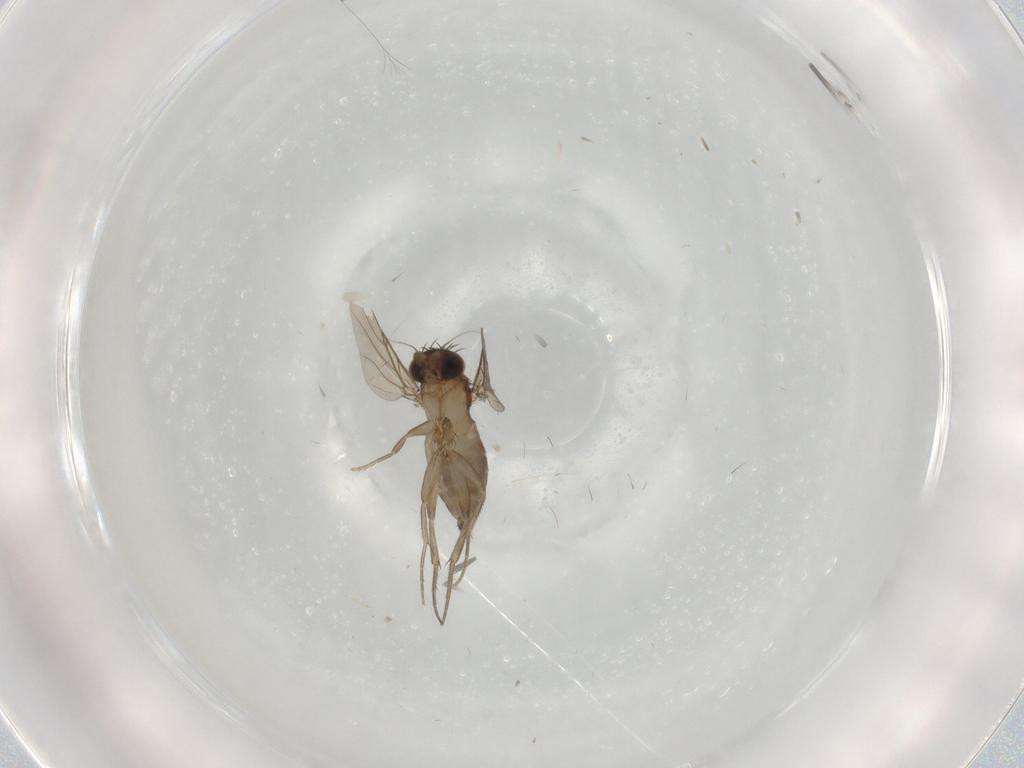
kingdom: Animalia
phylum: Arthropoda
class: Insecta
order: Diptera
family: Phoridae
